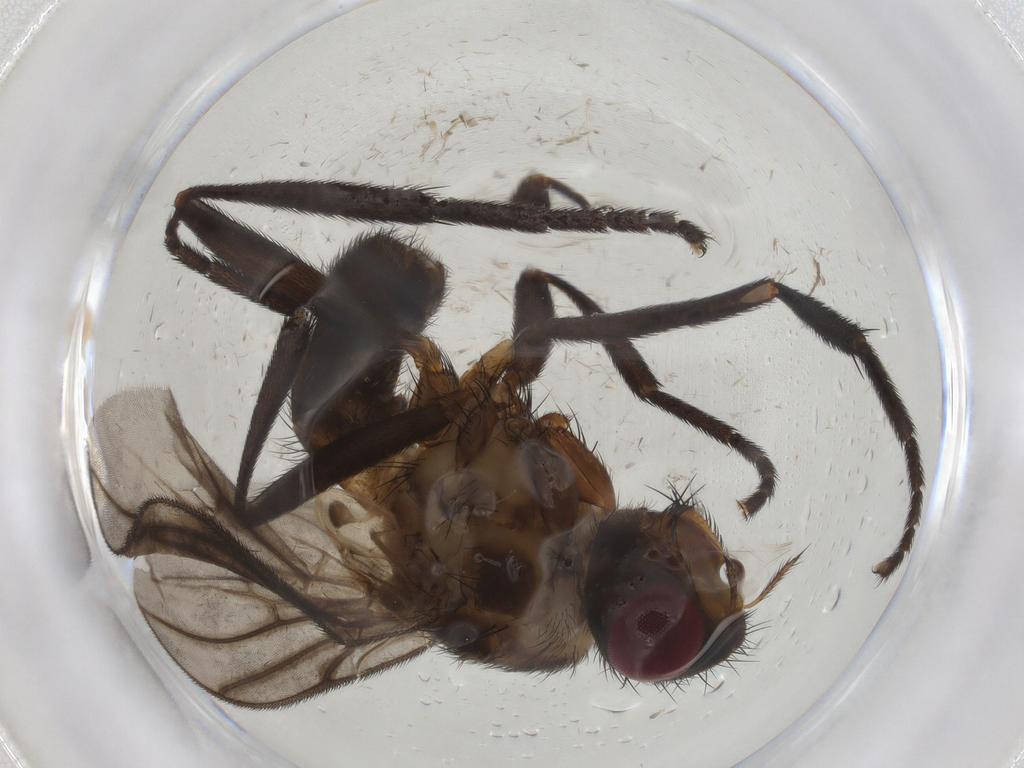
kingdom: Animalia
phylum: Arthropoda
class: Insecta
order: Diptera
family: Calliphoridae
